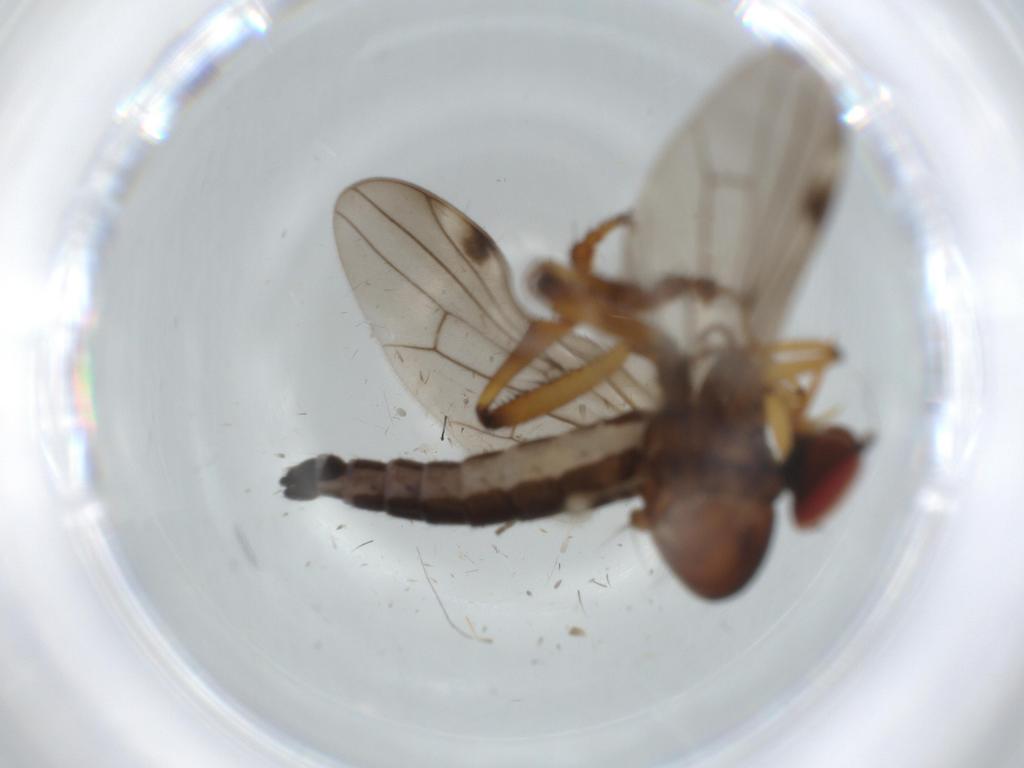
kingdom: Animalia
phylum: Arthropoda
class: Insecta
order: Diptera
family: Hybotidae
